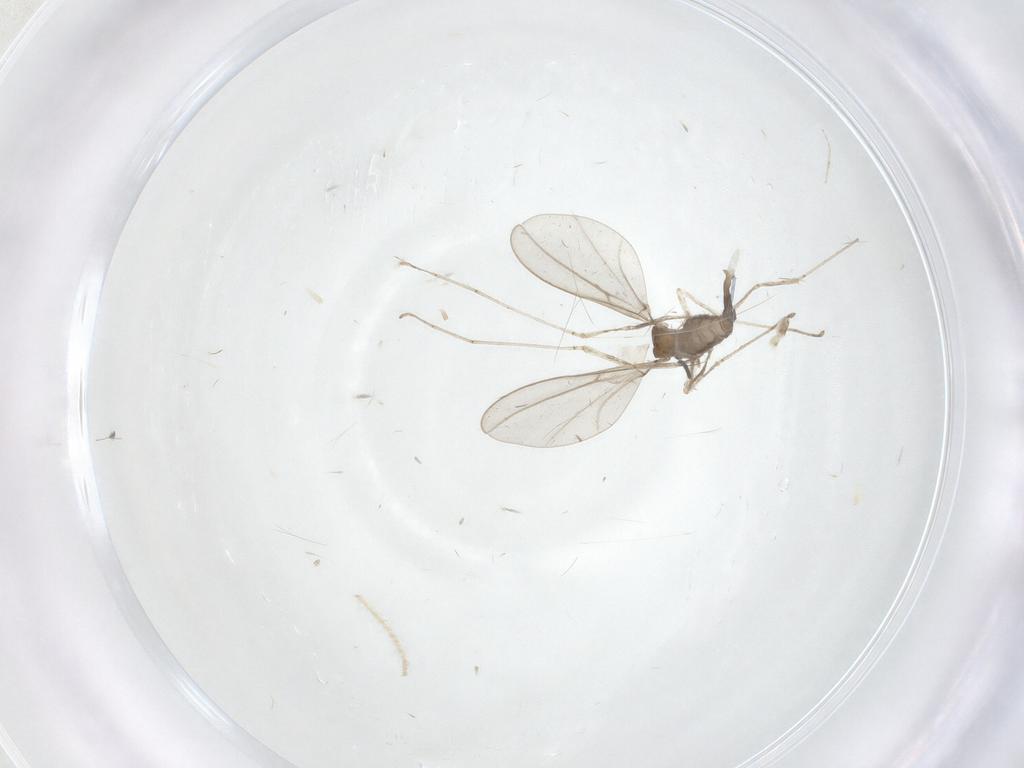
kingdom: Animalia
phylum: Arthropoda
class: Insecta
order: Diptera
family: Cecidomyiidae
